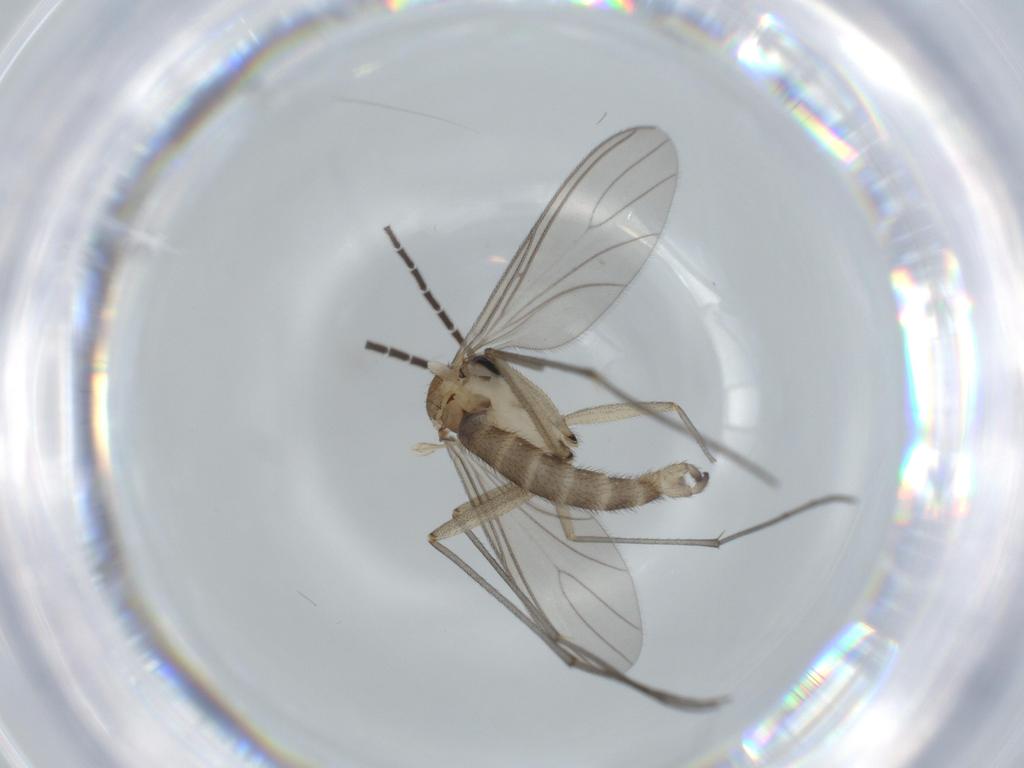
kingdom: Animalia
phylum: Arthropoda
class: Insecta
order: Diptera
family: Sciaridae
